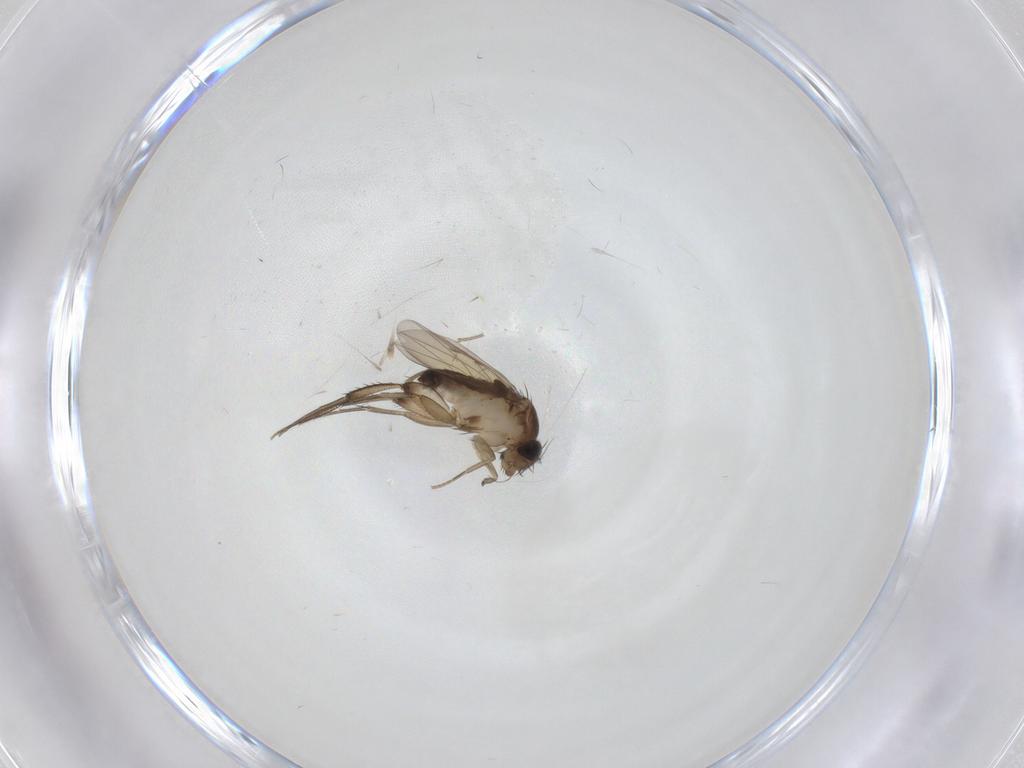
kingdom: Animalia
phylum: Arthropoda
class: Insecta
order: Diptera
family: Phoridae
